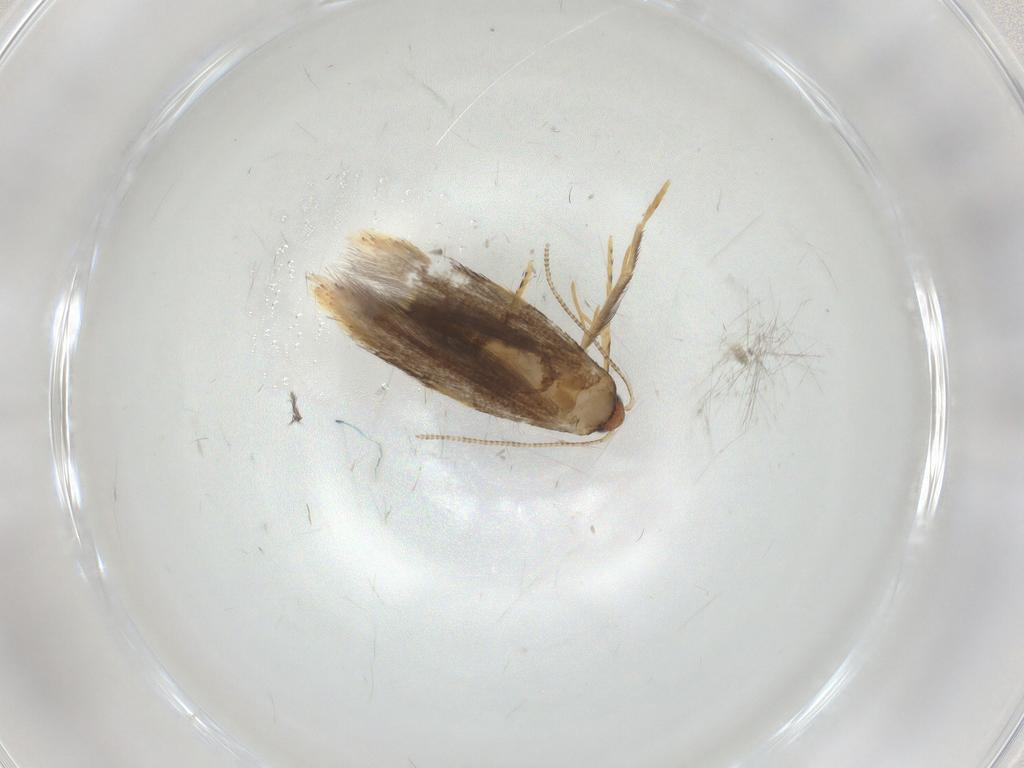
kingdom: Animalia
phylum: Arthropoda
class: Insecta
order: Lepidoptera
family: Tineidae
